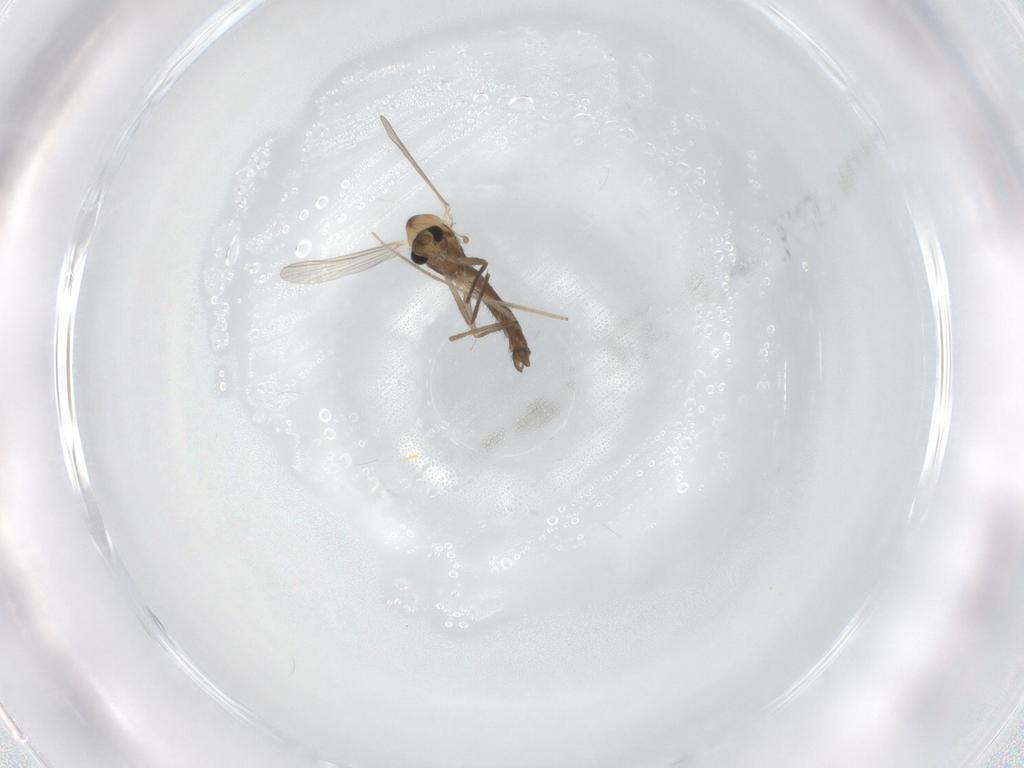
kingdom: Animalia
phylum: Arthropoda
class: Insecta
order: Diptera
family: Chironomidae
